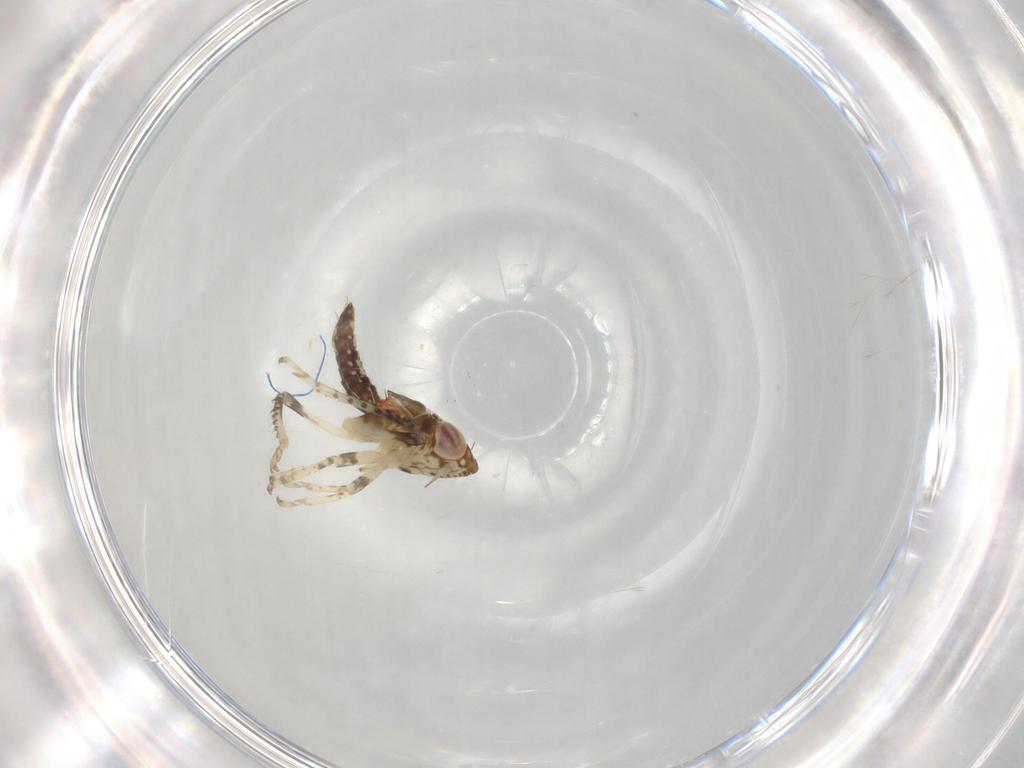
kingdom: Animalia
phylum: Arthropoda
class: Insecta
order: Hemiptera
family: Cicadellidae
